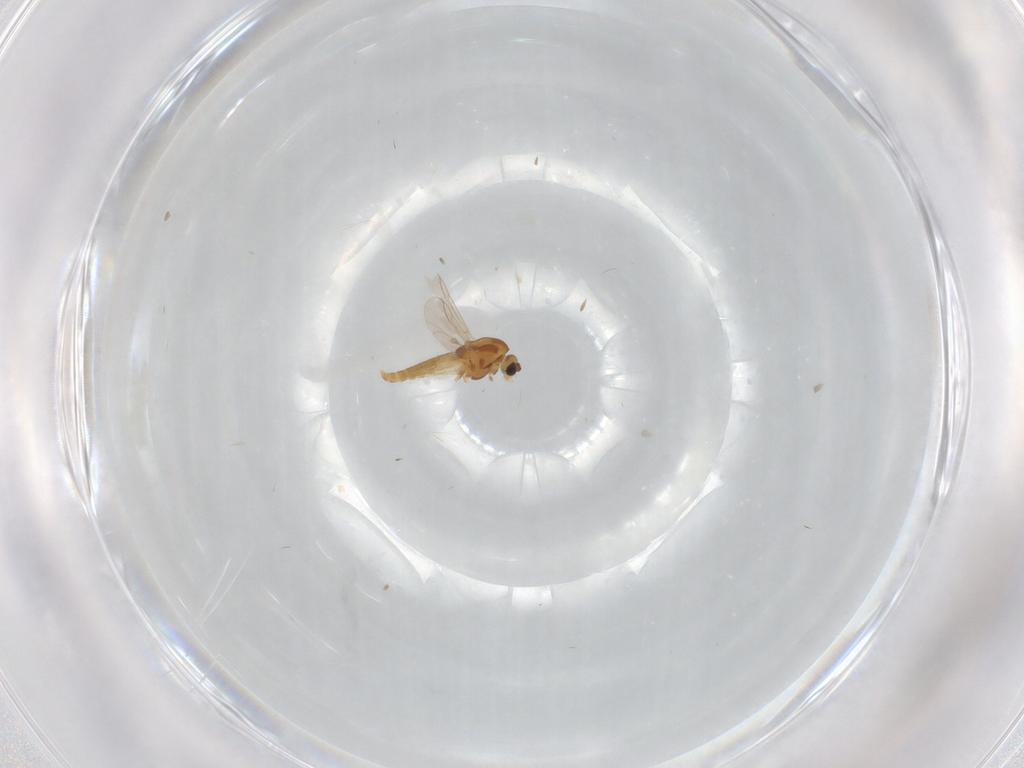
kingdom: Animalia
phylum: Arthropoda
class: Insecta
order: Diptera
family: Chironomidae
